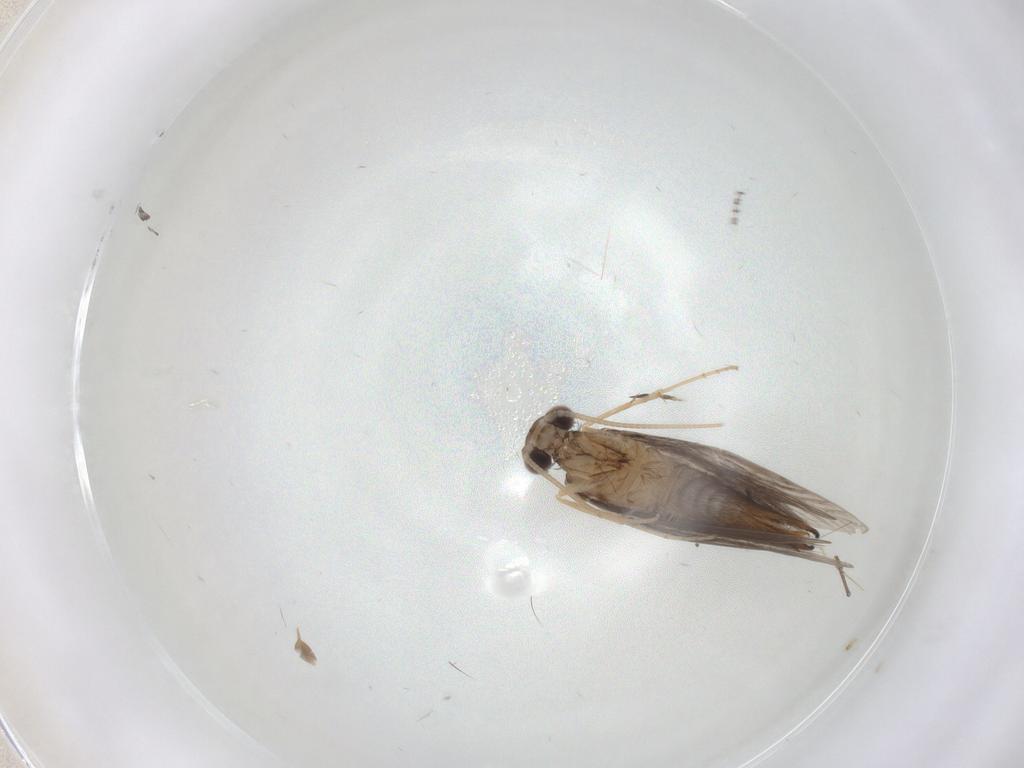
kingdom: Animalia
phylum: Arthropoda
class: Insecta
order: Trichoptera
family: Hydroptilidae
